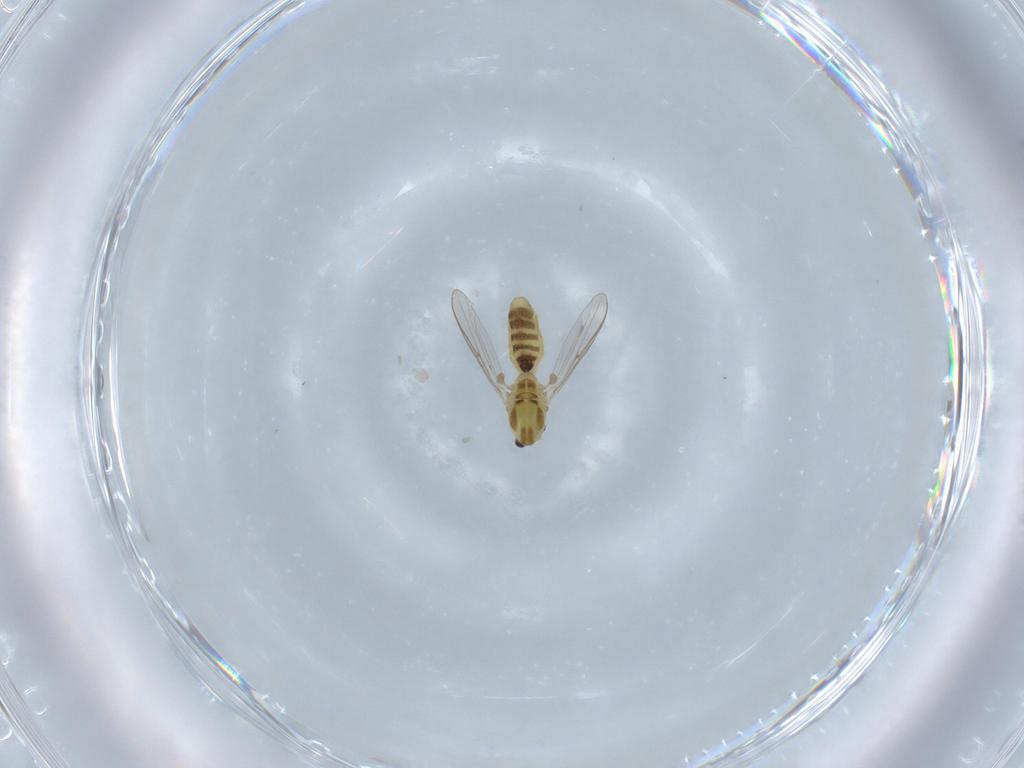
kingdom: Animalia
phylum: Arthropoda
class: Insecta
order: Diptera
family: Chironomidae
